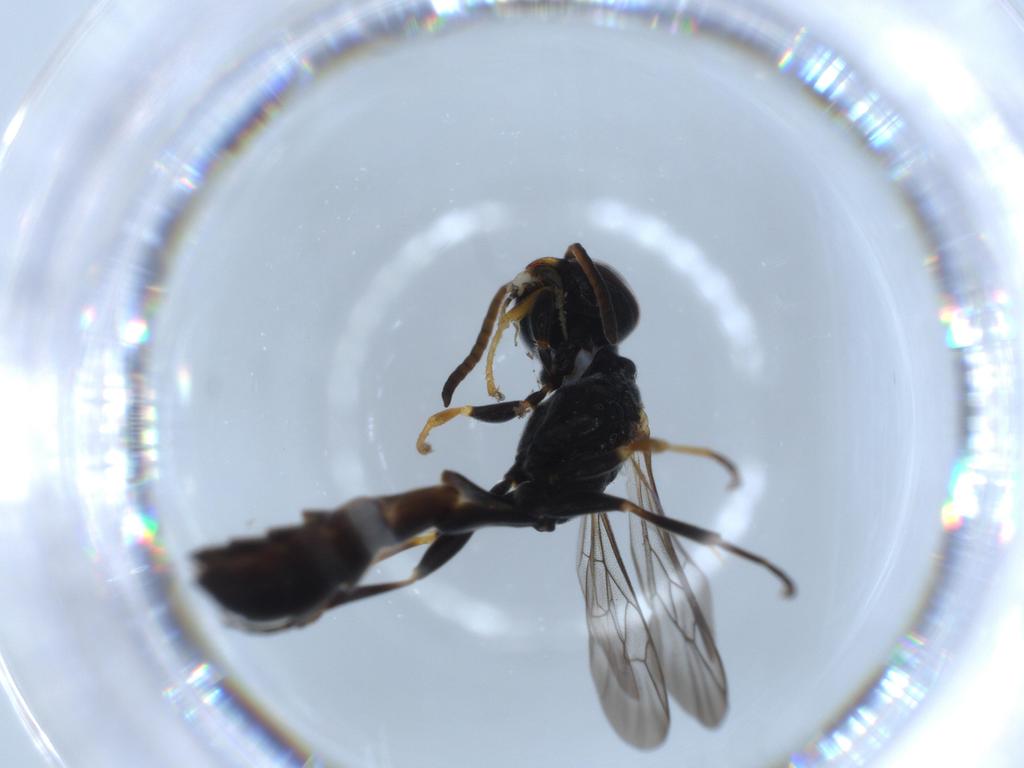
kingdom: Animalia
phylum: Arthropoda
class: Insecta
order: Hymenoptera
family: Crabronidae
